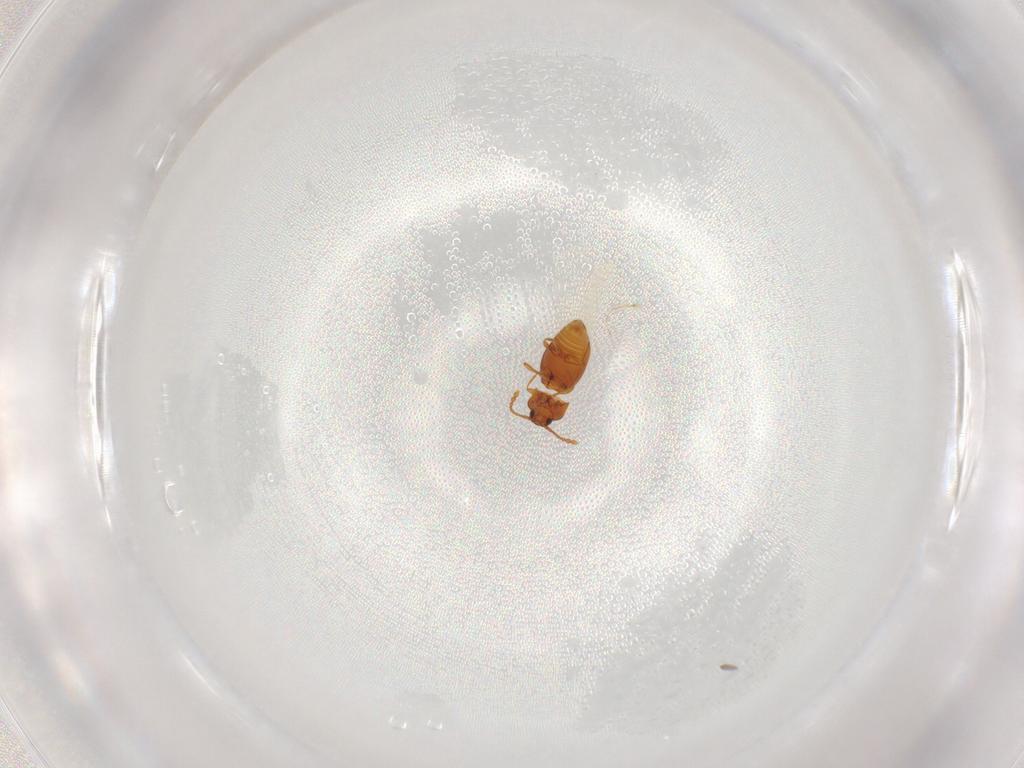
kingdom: Animalia
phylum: Arthropoda
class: Insecta
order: Coleoptera
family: Staphylinidae
